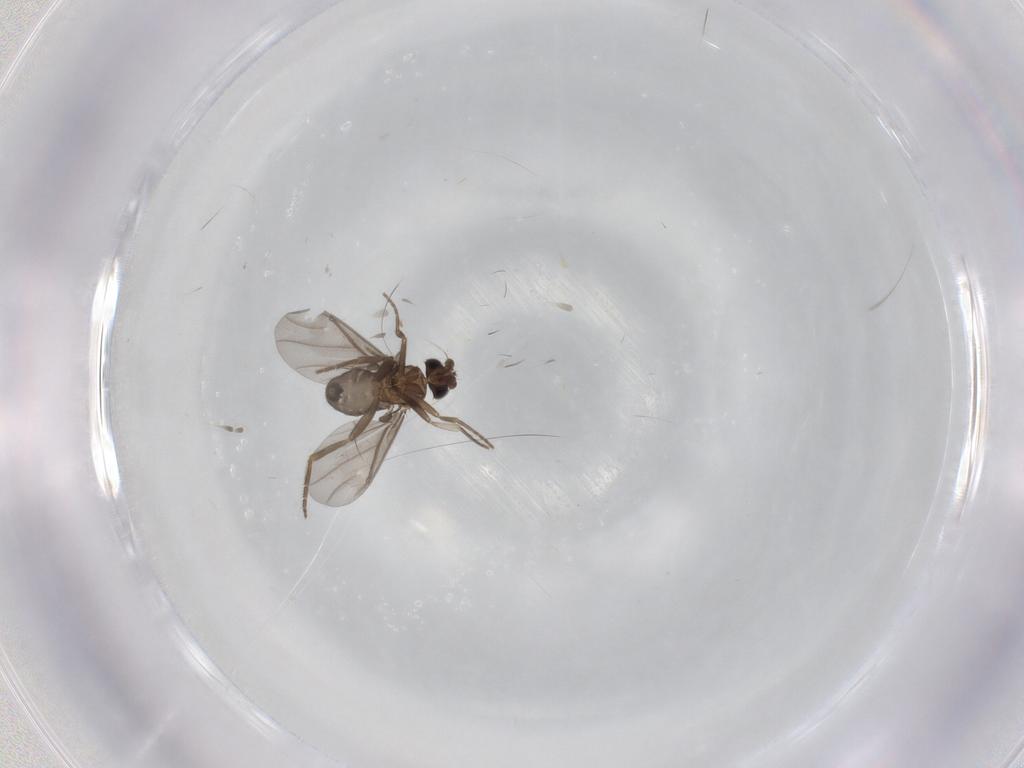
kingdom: Animalia
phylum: Arthropoda
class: Insecta
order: Diptera
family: Phoridae
